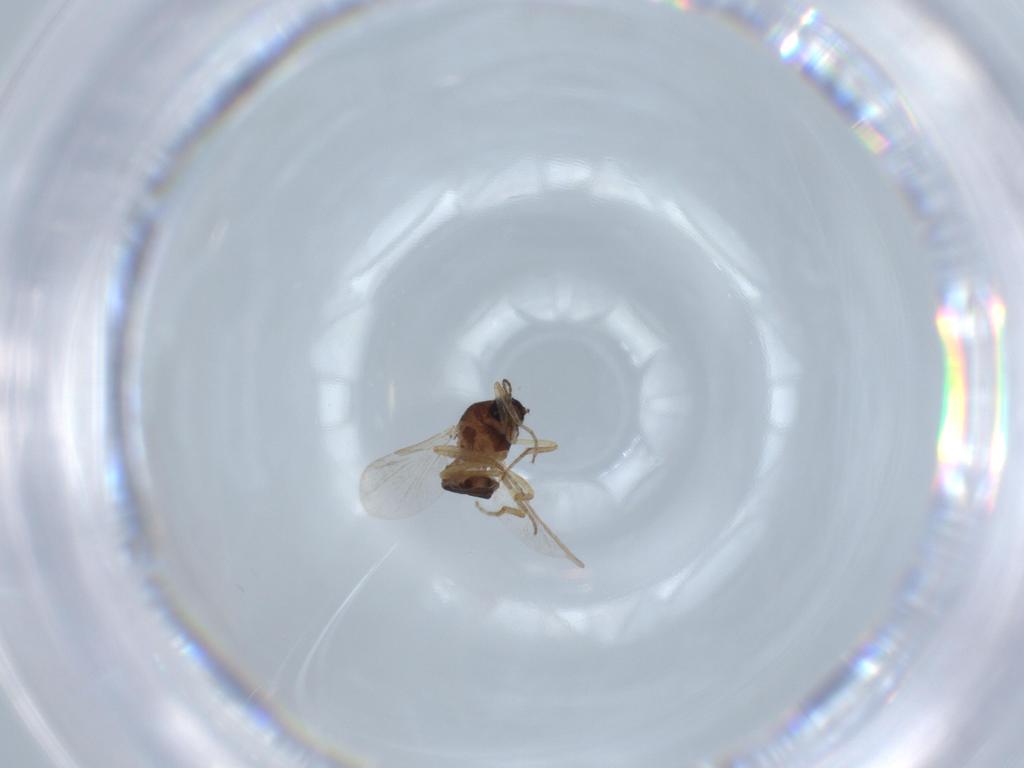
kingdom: Animalia
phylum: Arthropoda
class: Insecta
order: Diptera
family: Ceratopogonidae
